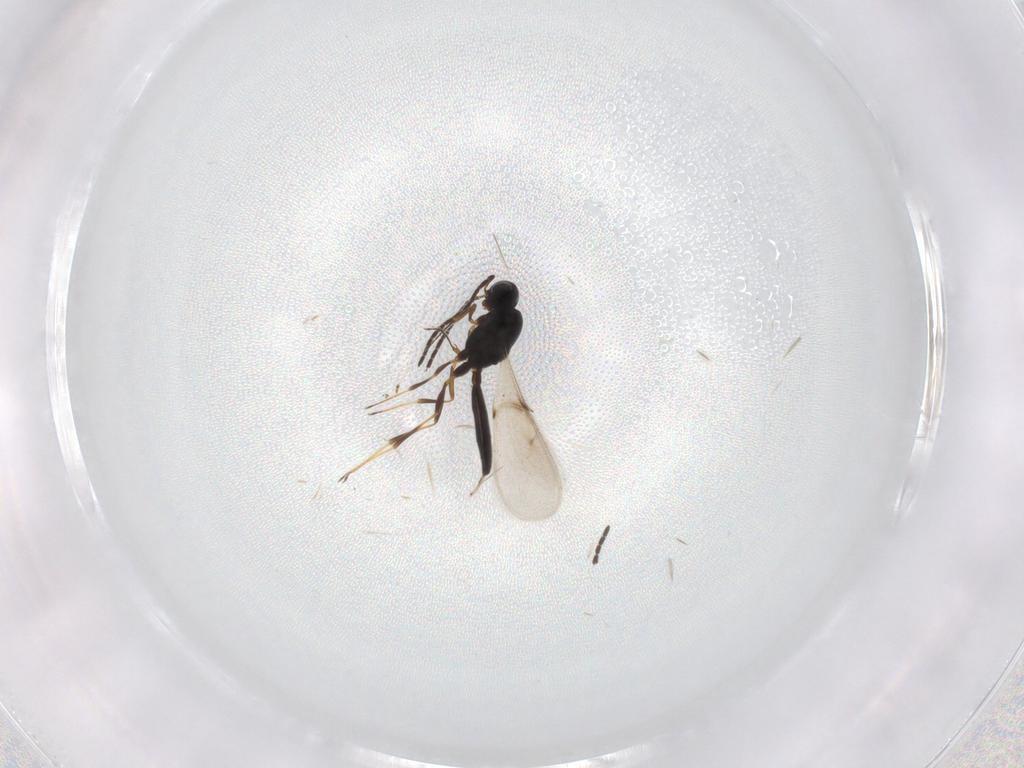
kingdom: Animalia
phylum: Arthropoda
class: Insecta
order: Hymenoptera
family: Scelionidae
